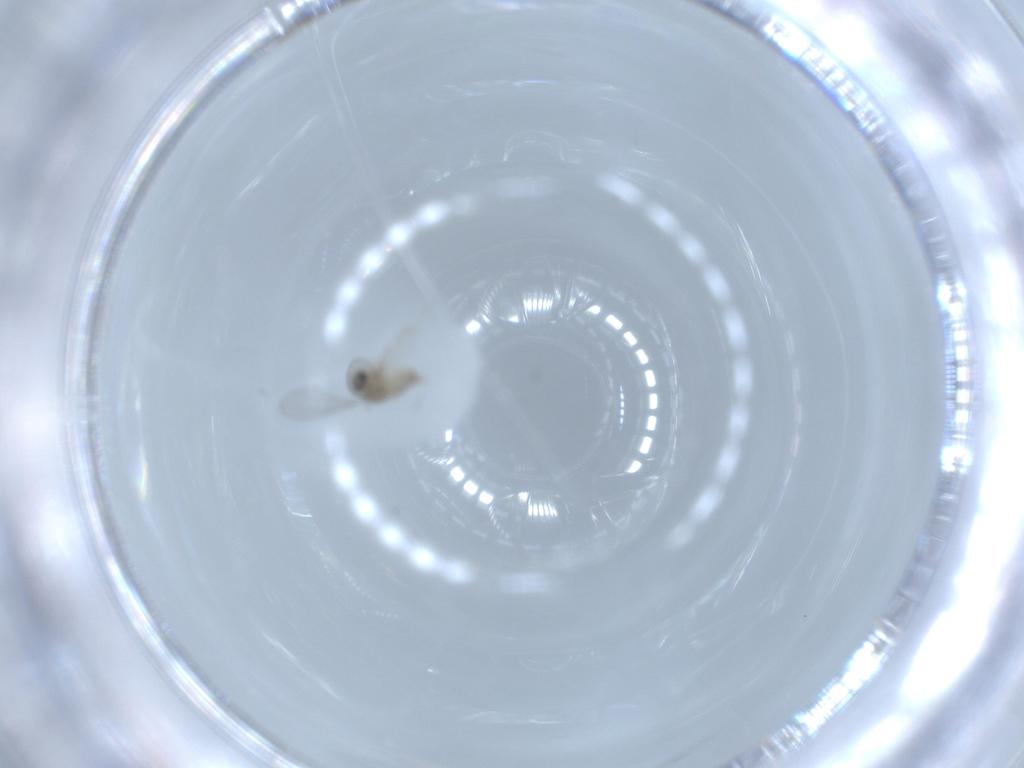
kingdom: Animalia
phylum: Arthropoda
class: Insecta
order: Diptera
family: Cecidomyiidae
